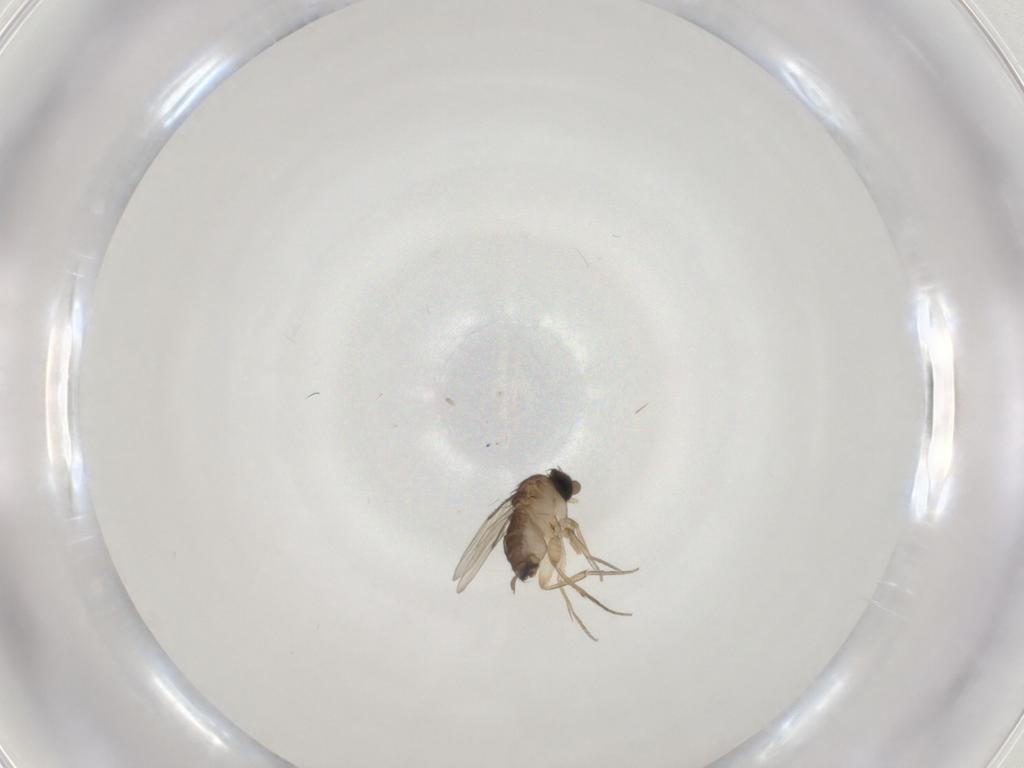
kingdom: Animalia
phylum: Arthropoda
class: Insecta
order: Diptera
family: Phoridae
